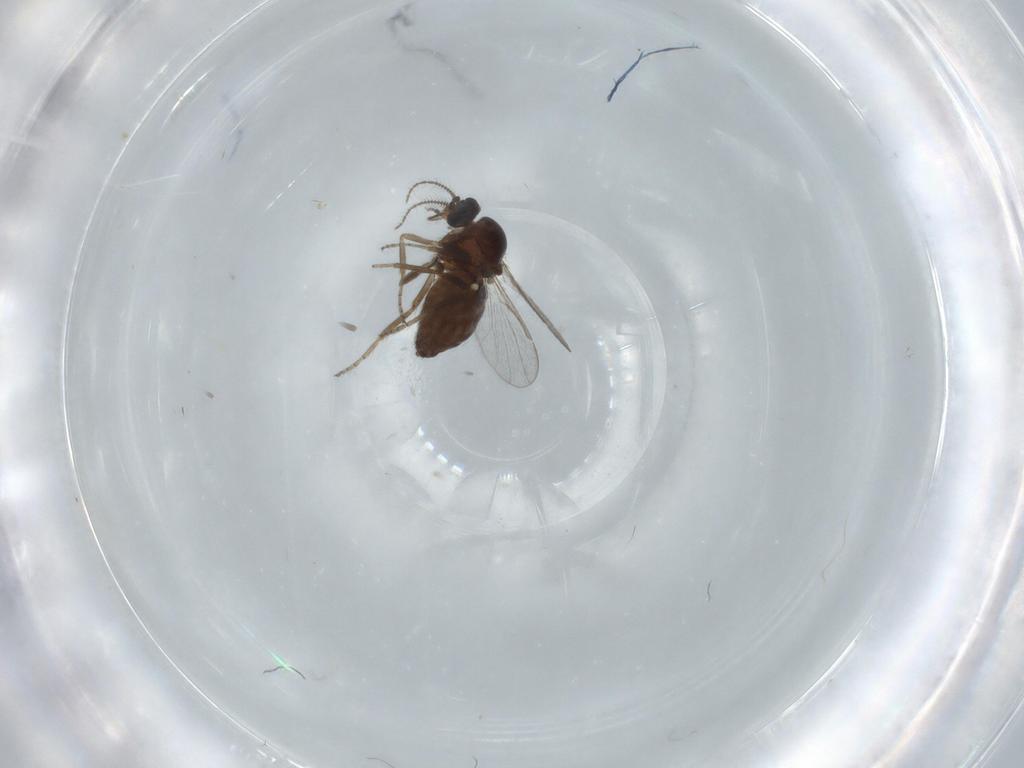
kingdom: Animalia
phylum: Arthropoda
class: Insecta
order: Diptera
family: Ceratopogonidae
